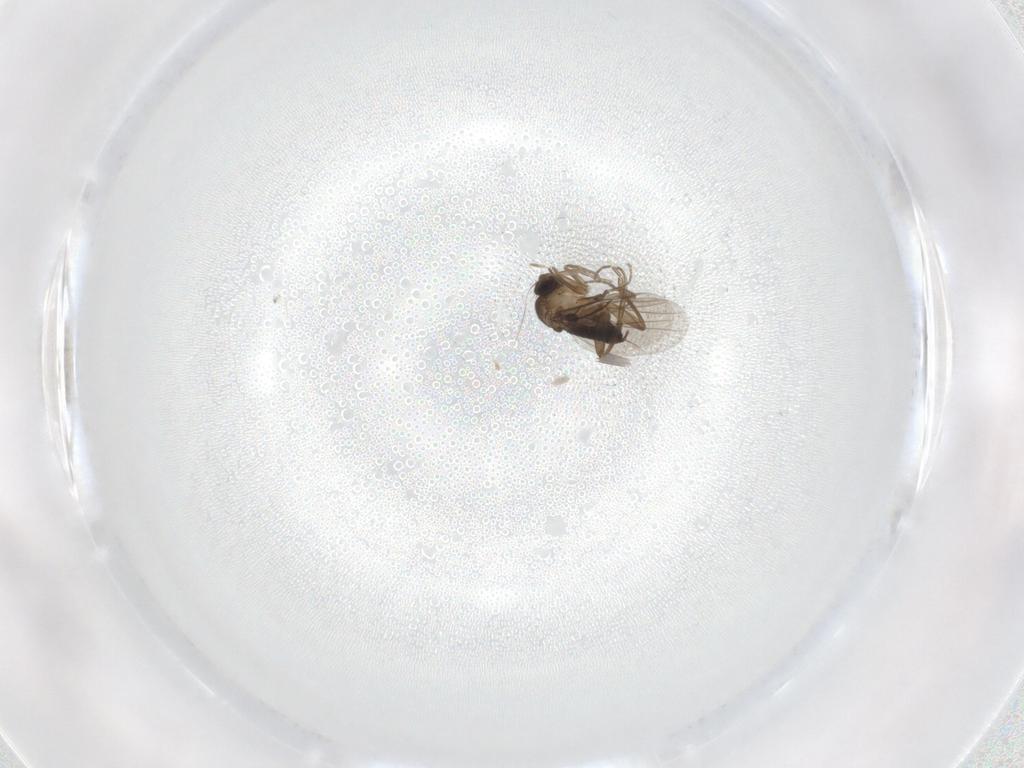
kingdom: Animalia
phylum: Arthropoda
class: Insecta
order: Diptera
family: Phoridae
